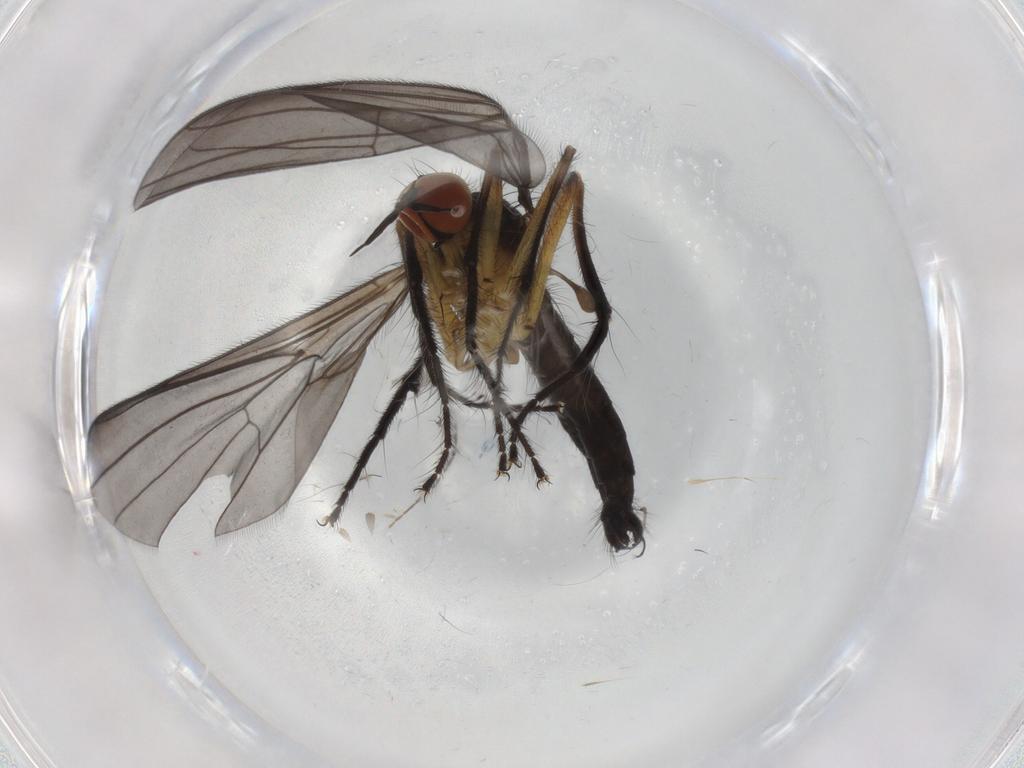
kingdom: Animalia
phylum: Arthropoda
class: Insecta
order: Diptera
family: Empididae
